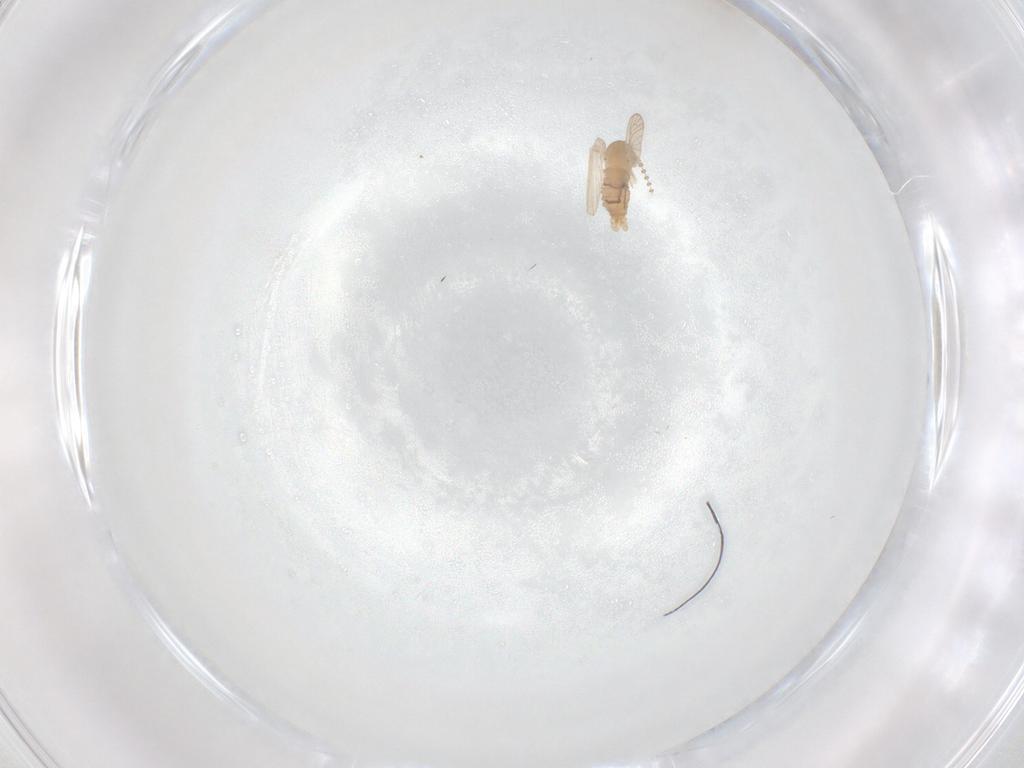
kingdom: Animalia
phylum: Arthropoda
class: Insecta
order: Diptera
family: Psychodidae
